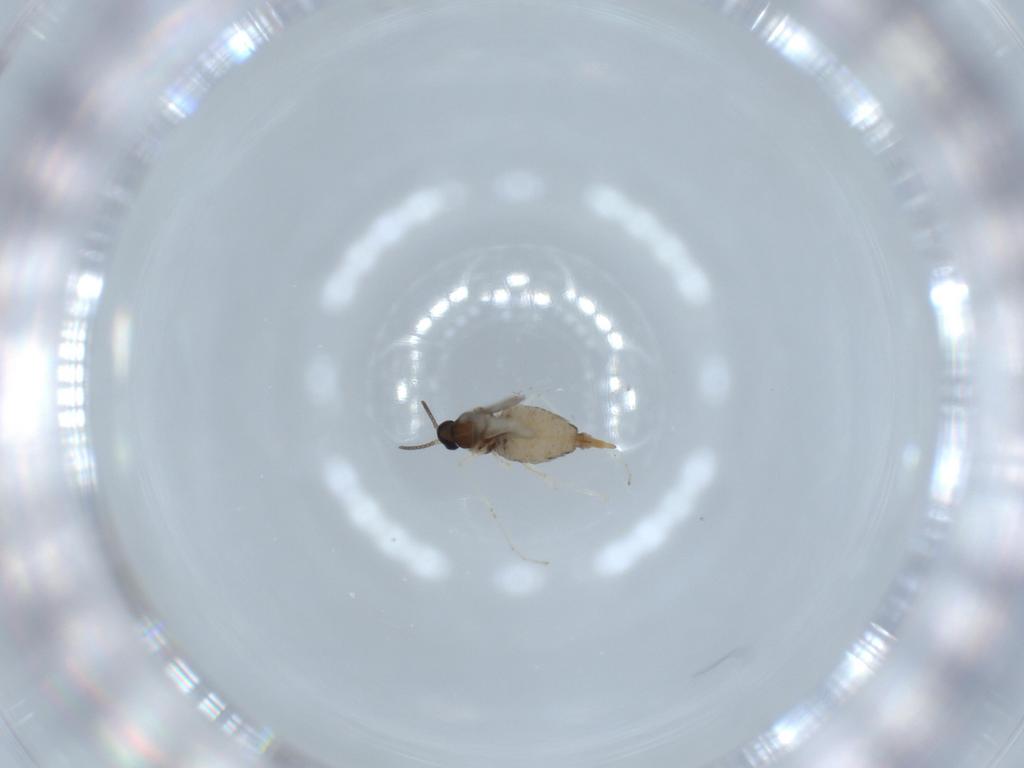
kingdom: Animalia
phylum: Arthropoda
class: Insecta
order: Diptera
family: Cecidomyiidae
